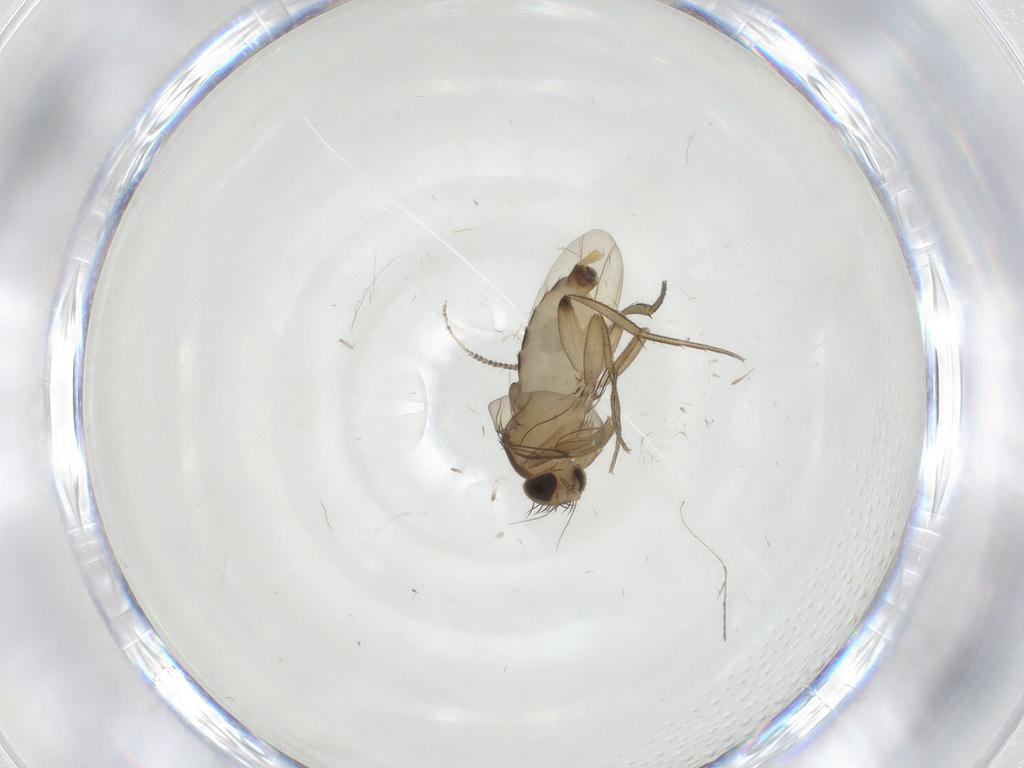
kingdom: Animalia
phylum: Arthropoda
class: Insecta
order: Diptera
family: Phoridae
